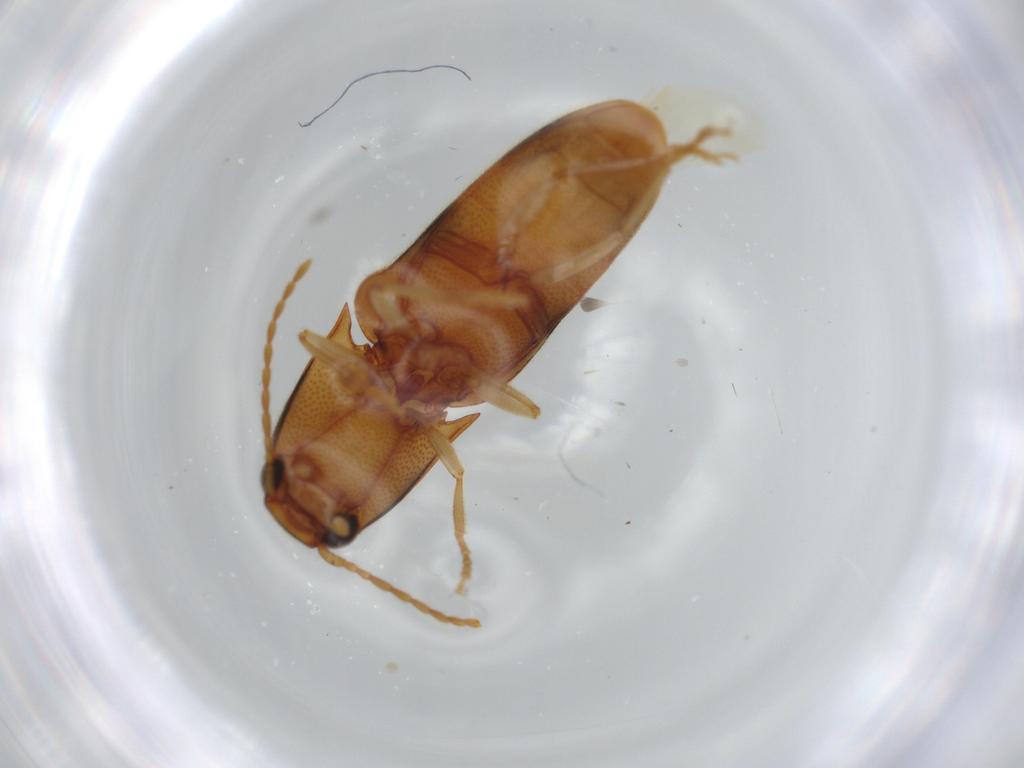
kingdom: Animalia
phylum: Arthropoda
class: Insecta
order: Coleoptera
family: Elateridae
